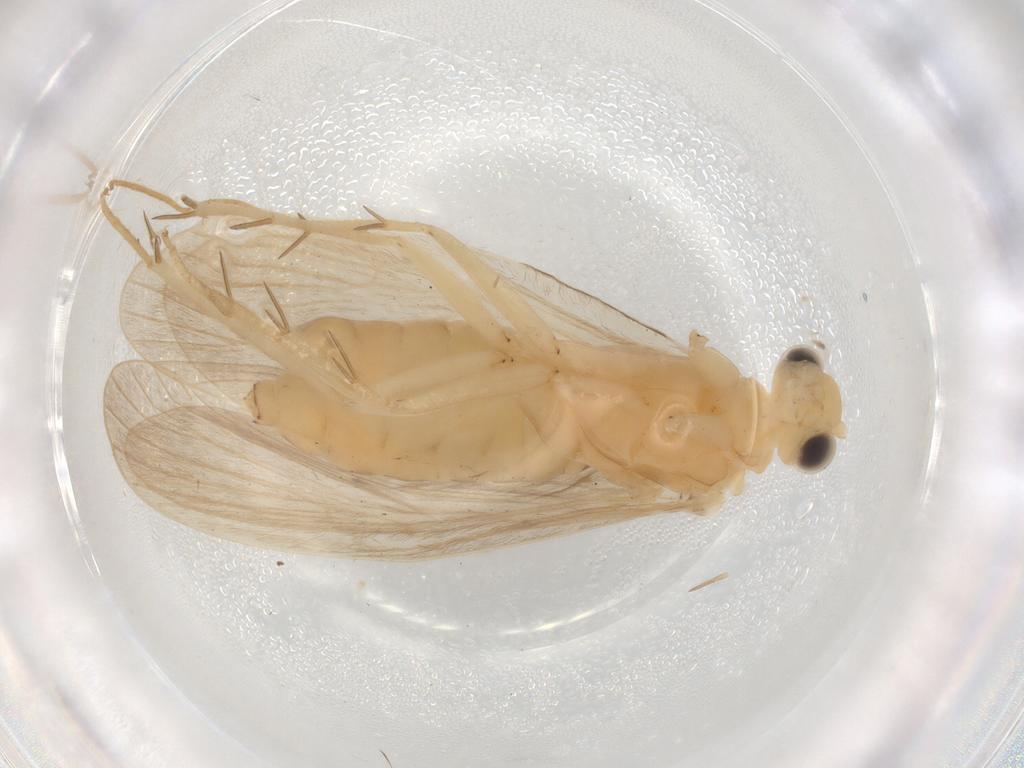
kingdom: Animalia
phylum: Arthropoda
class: Insecta
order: Trichoptera
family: Philopotamidae
